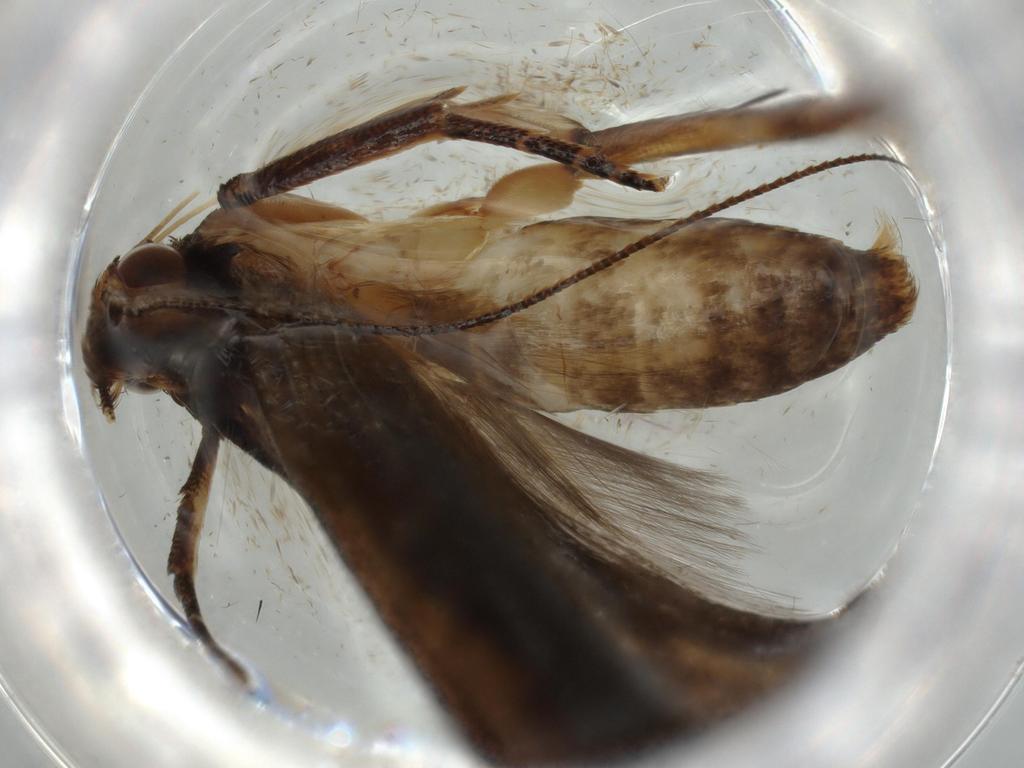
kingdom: Animalia
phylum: Arthropoda
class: Insecta
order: Lepidoptera
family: Gelechiidae
